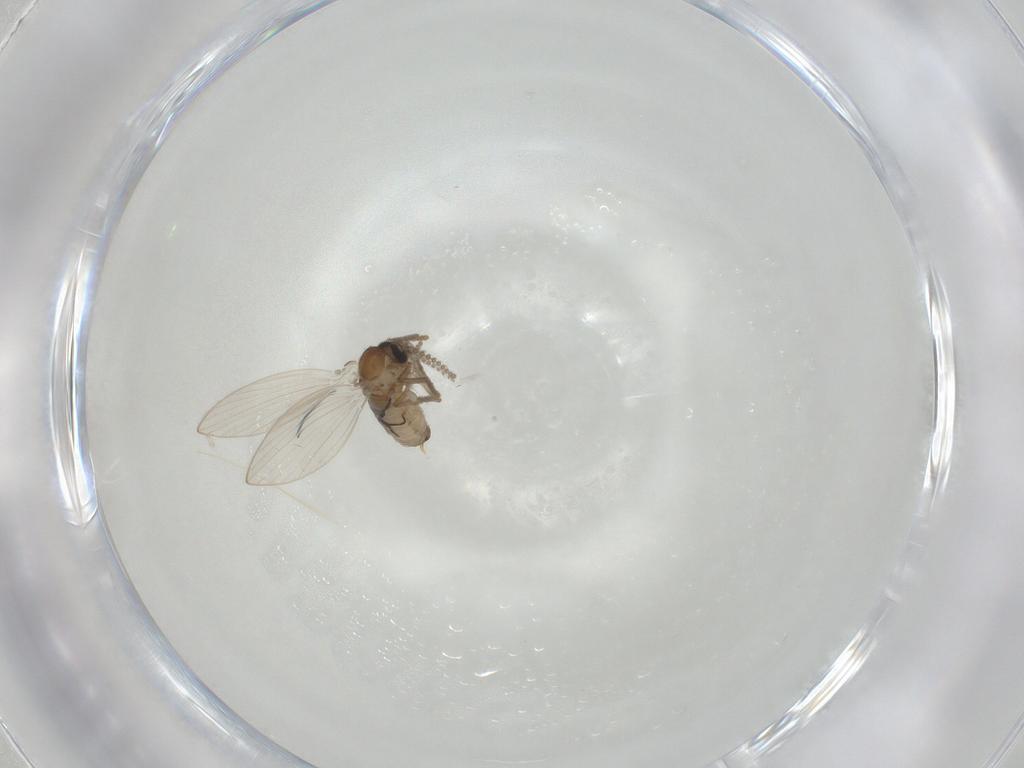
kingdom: Animalia
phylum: Arthropoda
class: Insecta
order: Diptera
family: Psychodidae
